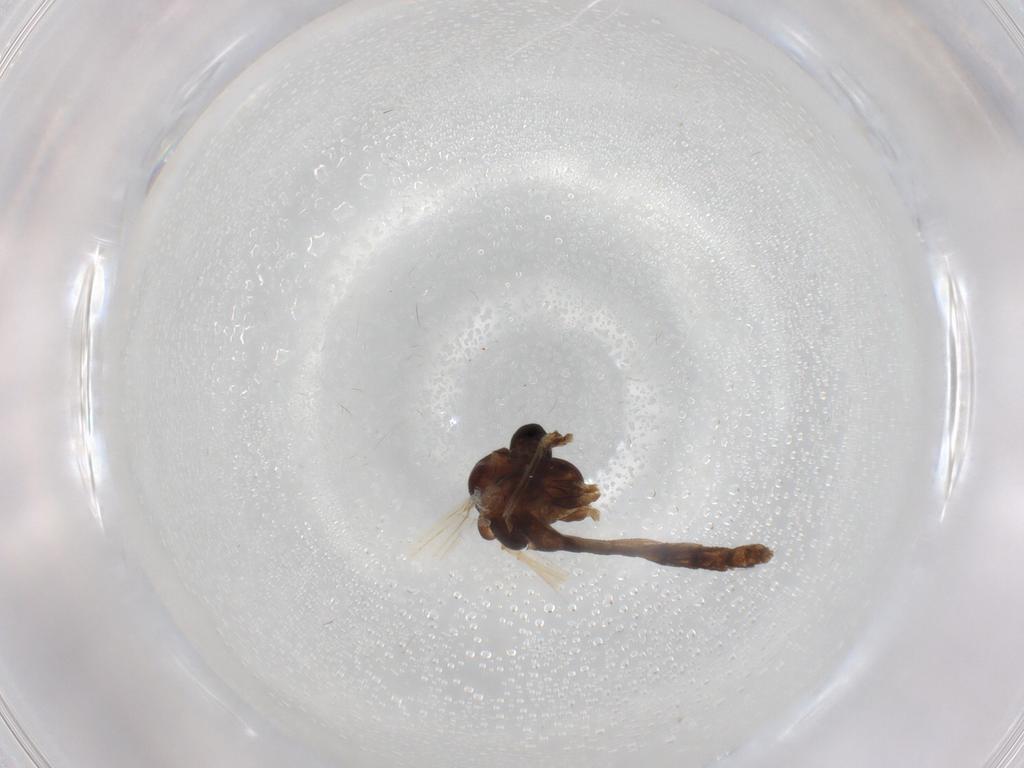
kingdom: Animalia
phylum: Arthropoda
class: Insecta
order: Diptera
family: Chironomidae
